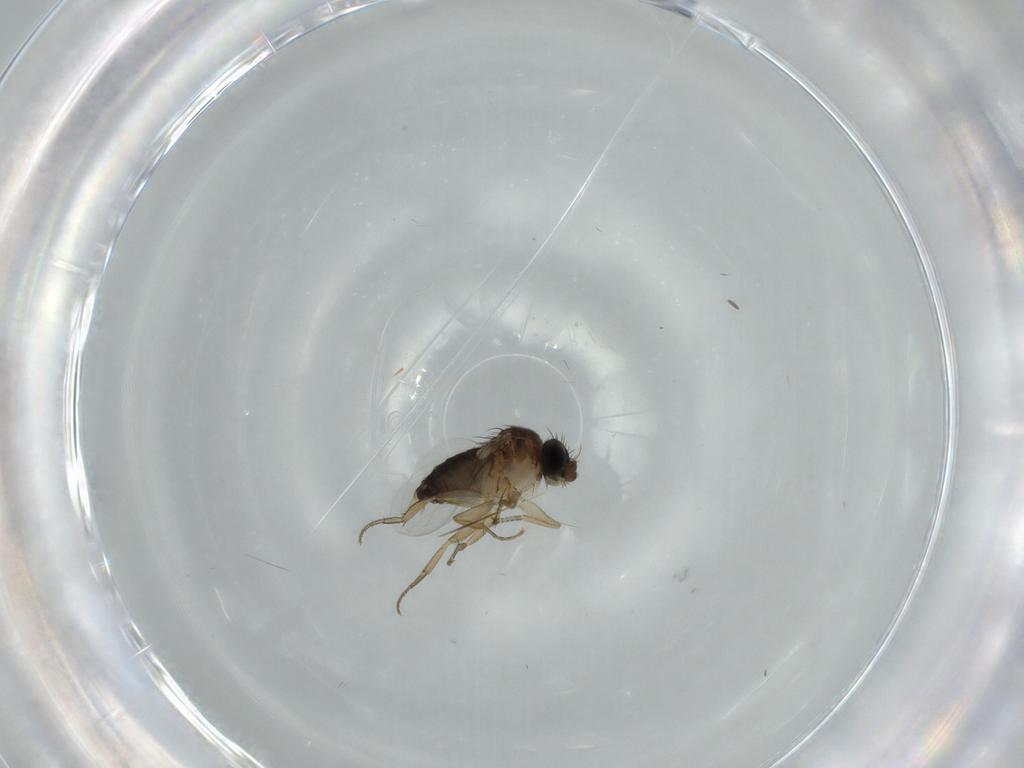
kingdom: Animalia
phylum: Arthropoda
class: Insecta
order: Diptera
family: Phoridae
